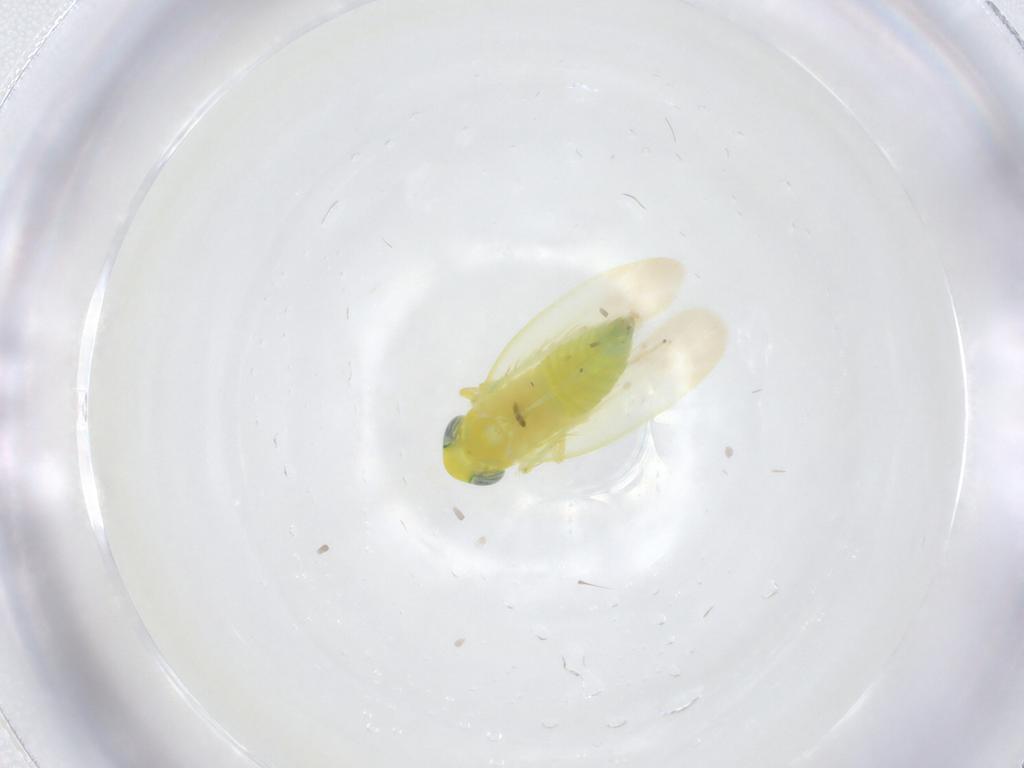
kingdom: Animalia
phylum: Arthropoda
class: Insecta
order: Hemiptera
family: Cicadellidae
